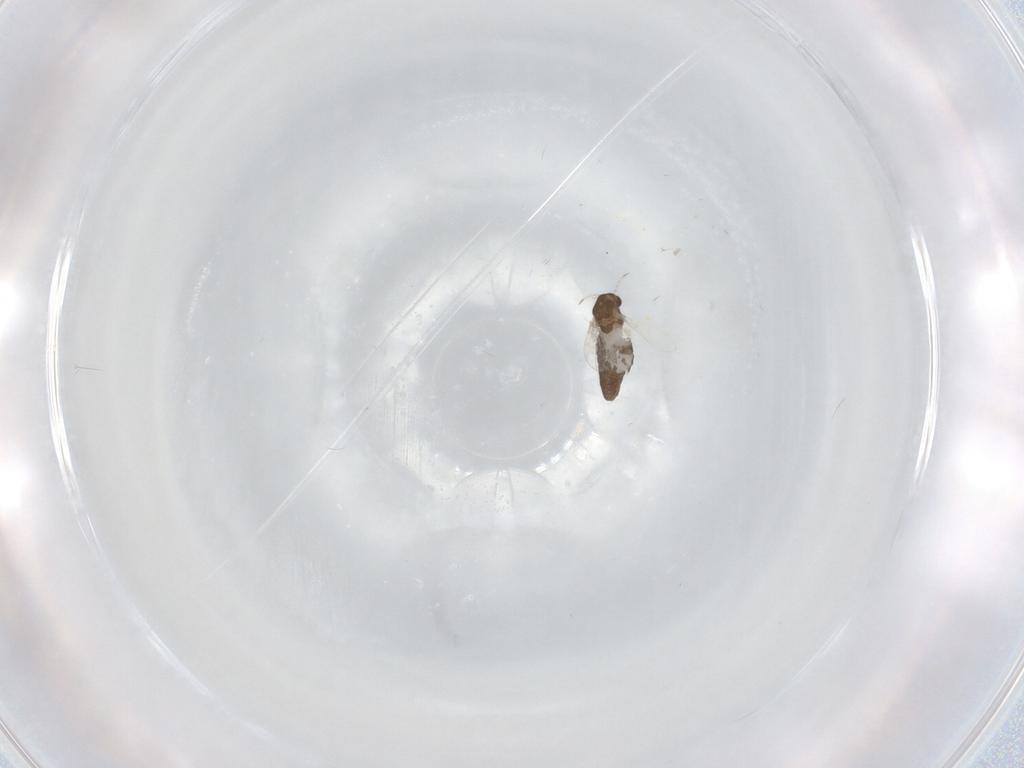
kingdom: Animalia
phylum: Arthropoda
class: Insecta
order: Diptera
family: Chironomidae
